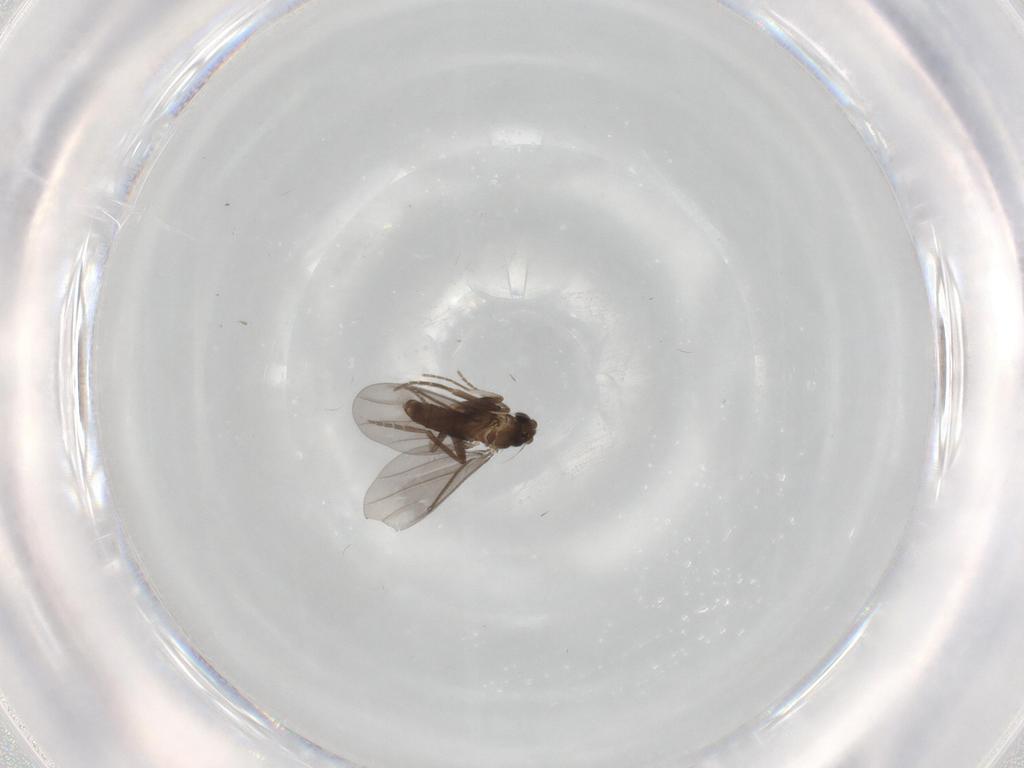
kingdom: Animalia
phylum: Arthropoda
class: Insecta
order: Diptera
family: Phoridae
